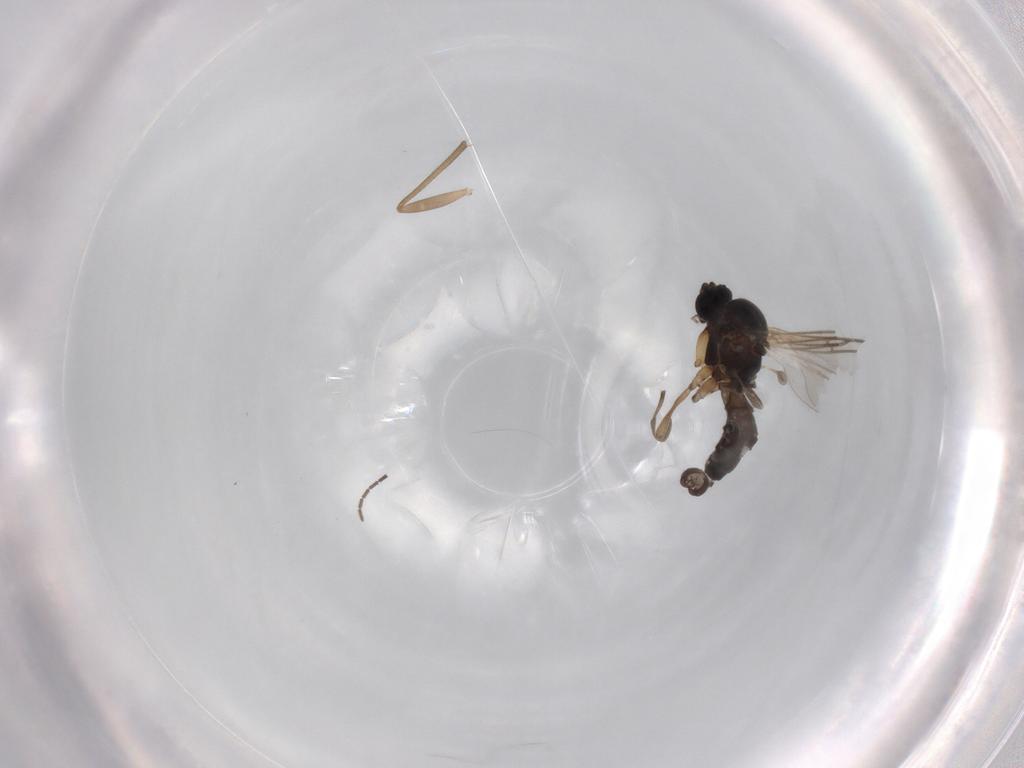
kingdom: Animalia
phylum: Arthropoda
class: Insecta
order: Diptera
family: Sciaridae
